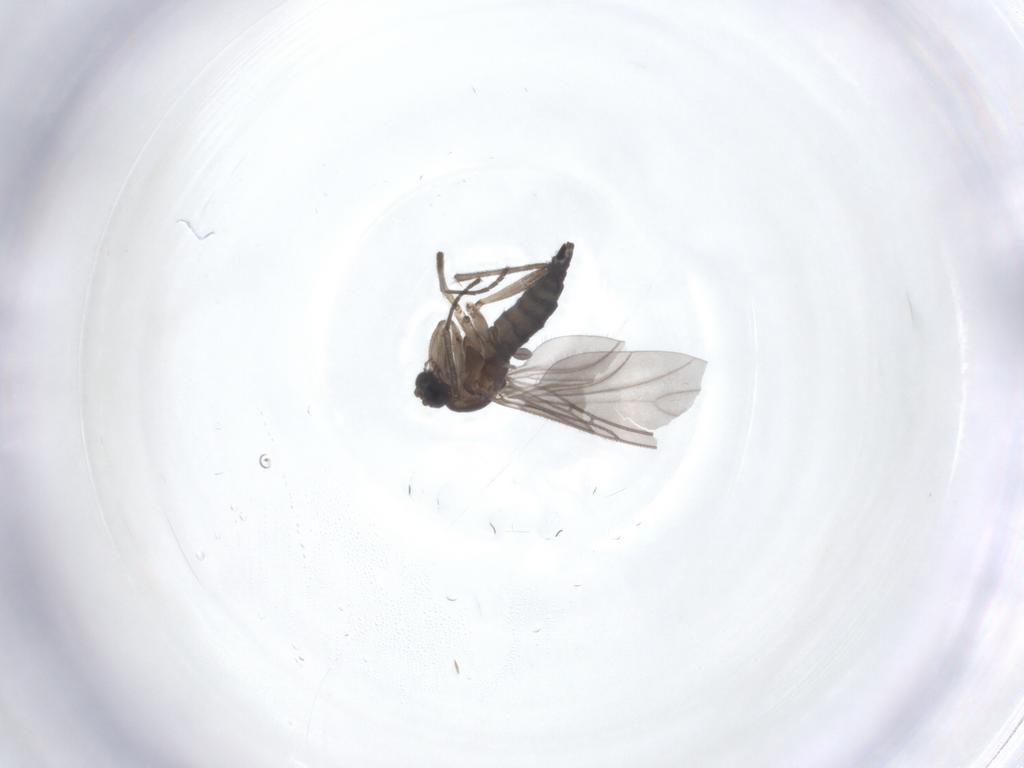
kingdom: Animalia
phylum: Arthropoda
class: Insecta
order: Diptera
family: Sciaridae
